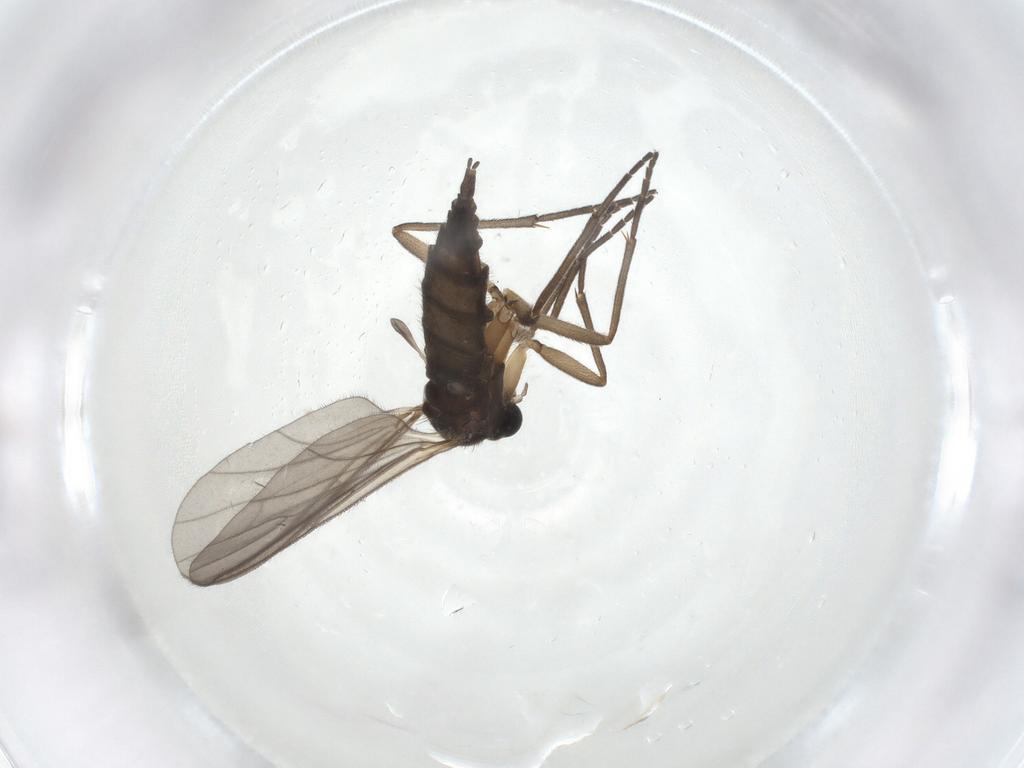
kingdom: Animalia
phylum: Arthropoda
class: Insecta
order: Diptera
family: Sciaridae
